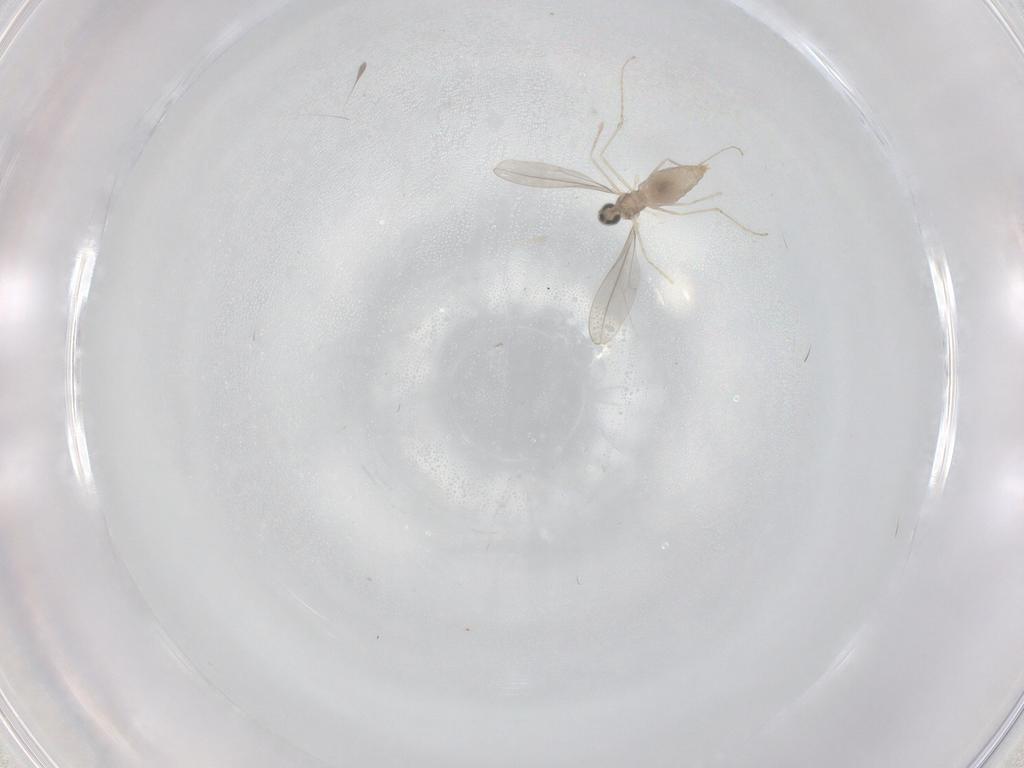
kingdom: Animalia
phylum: Arthropoda
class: Insecta
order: Diptera
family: Cecidomyiidae
